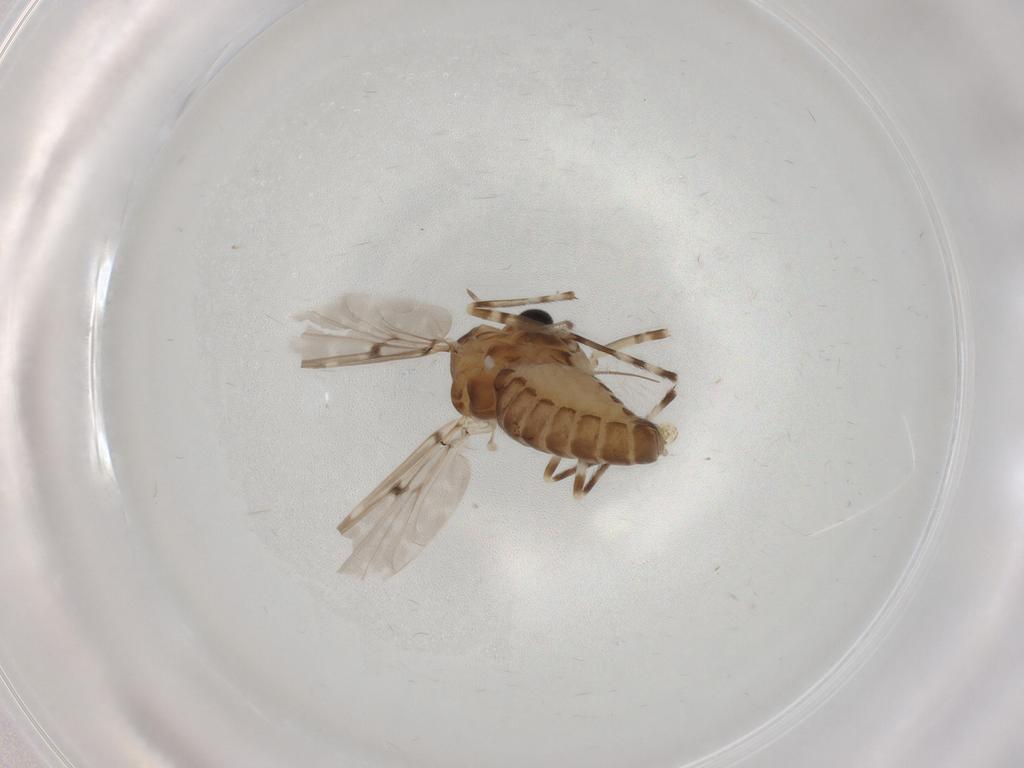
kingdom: Animalia
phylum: Arthropoda
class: Insecta
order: Diptera
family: Chironomidae
